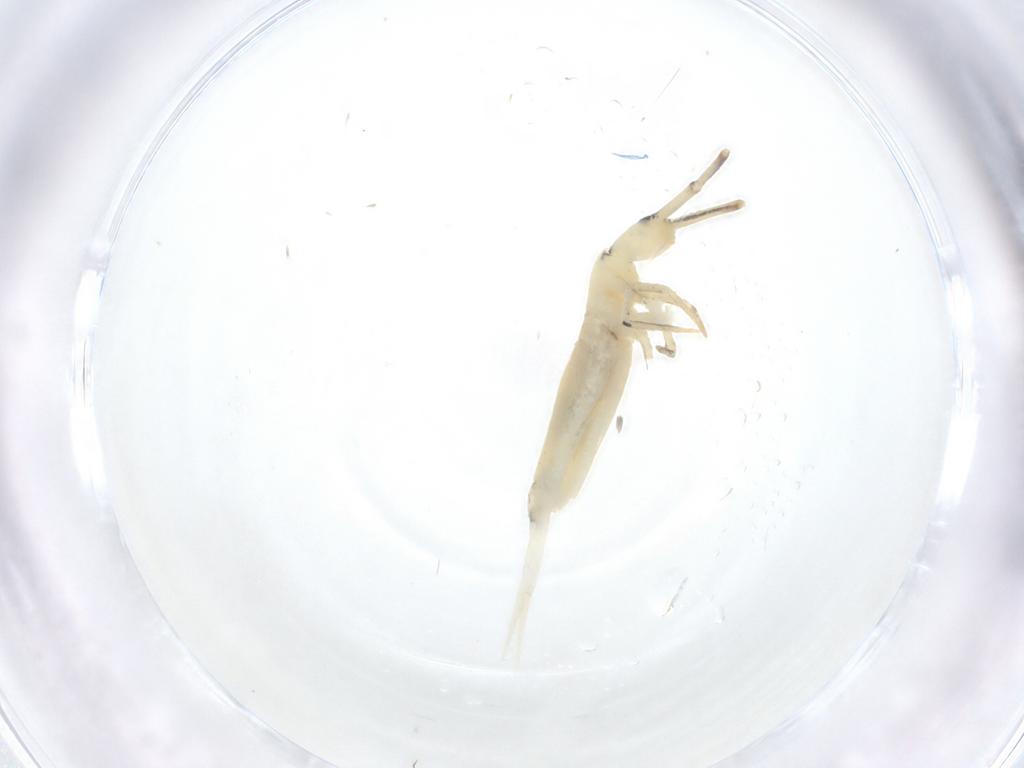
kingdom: Animalia
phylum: Arthropoda
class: Collembola
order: Entomobryomorpha
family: Entomobryidae
